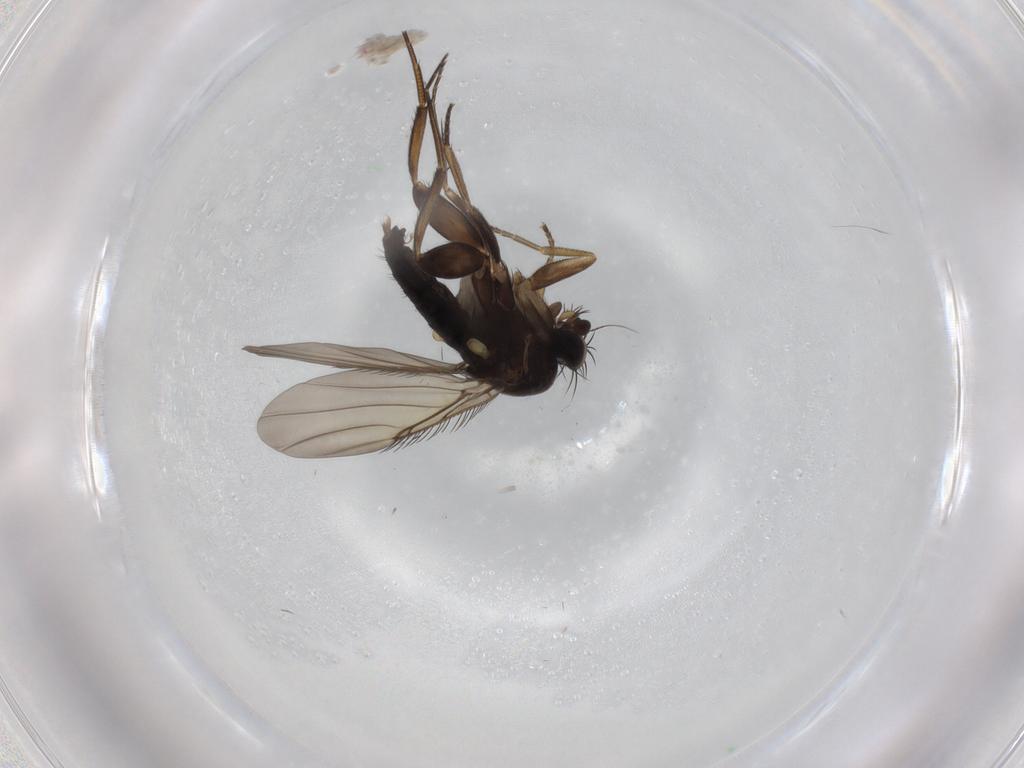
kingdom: Animalia
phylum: Arthropoda
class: Insecta
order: Diptera
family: Phoridae
